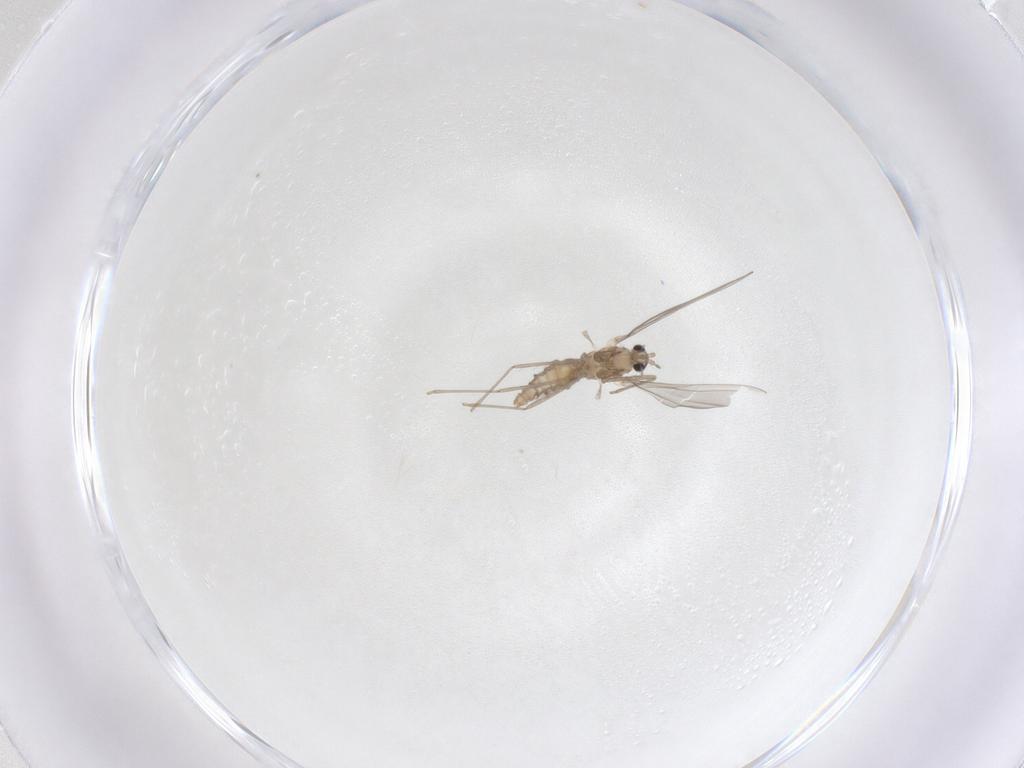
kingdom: Animalia
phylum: Arthropoda
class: Insecta
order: Diptera
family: Cecidomyiidae
